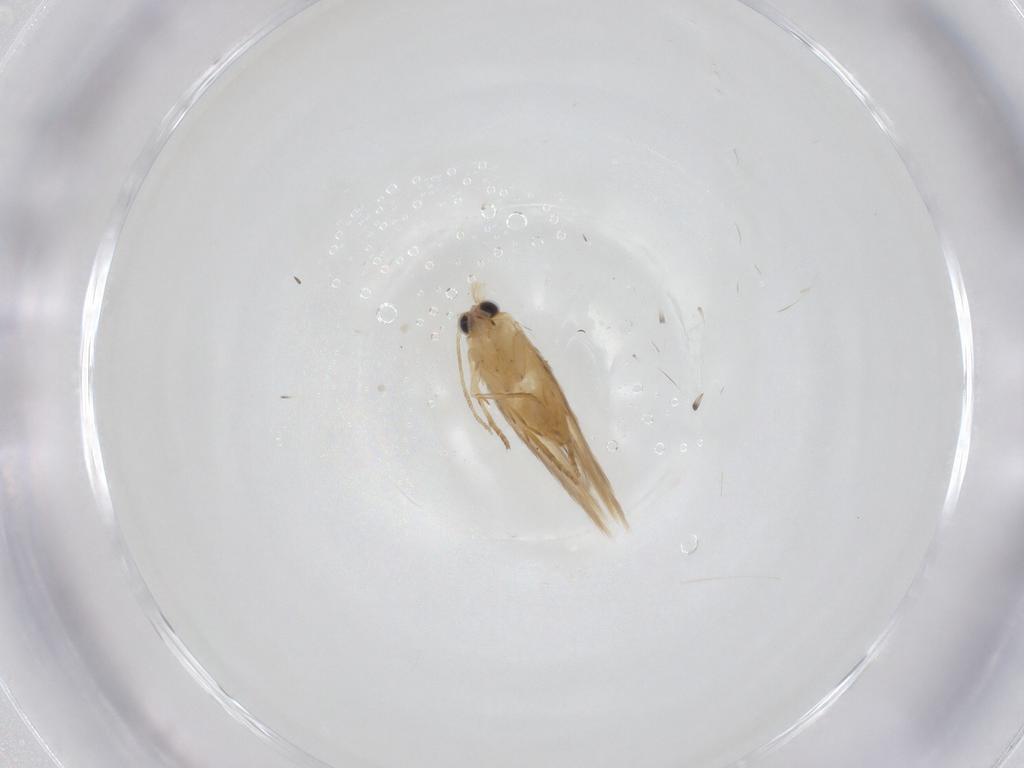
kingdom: Animalia
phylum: Arthropoda
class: Insecta
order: Lepidoptera
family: Nepticulidae
